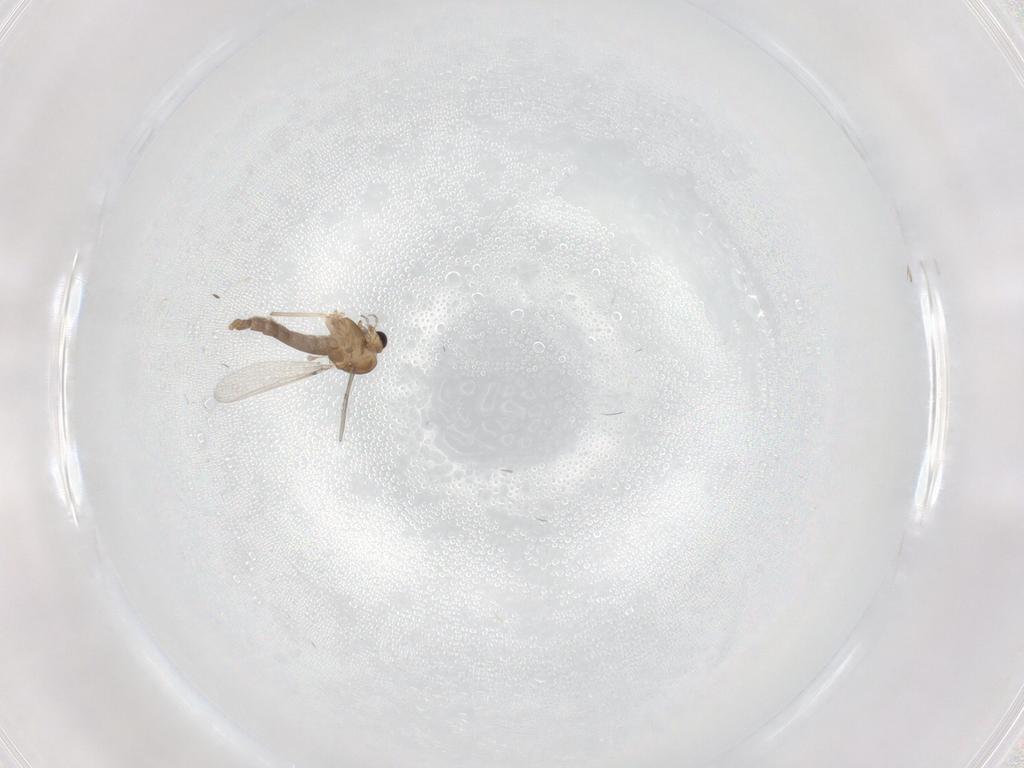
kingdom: Animalia
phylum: Arthropoda
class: Insecta
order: Diptera
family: Chironomidae
